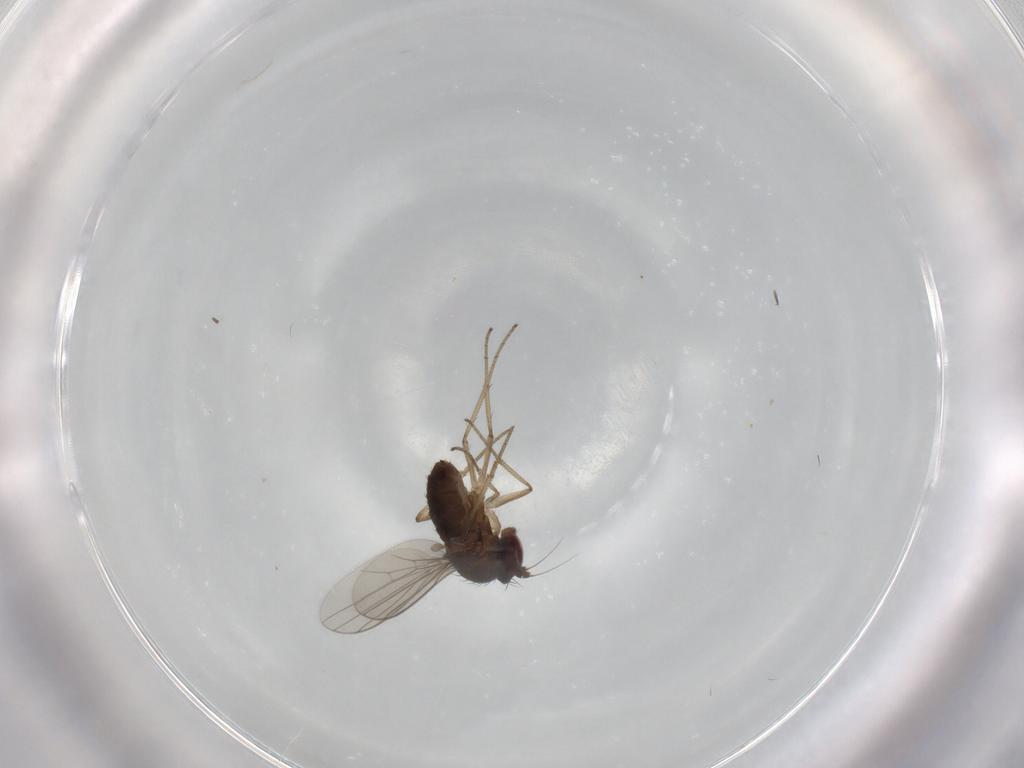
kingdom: Animalia
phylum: Arthropoda
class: Insecta
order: Diptera
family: Dolichopodidae
